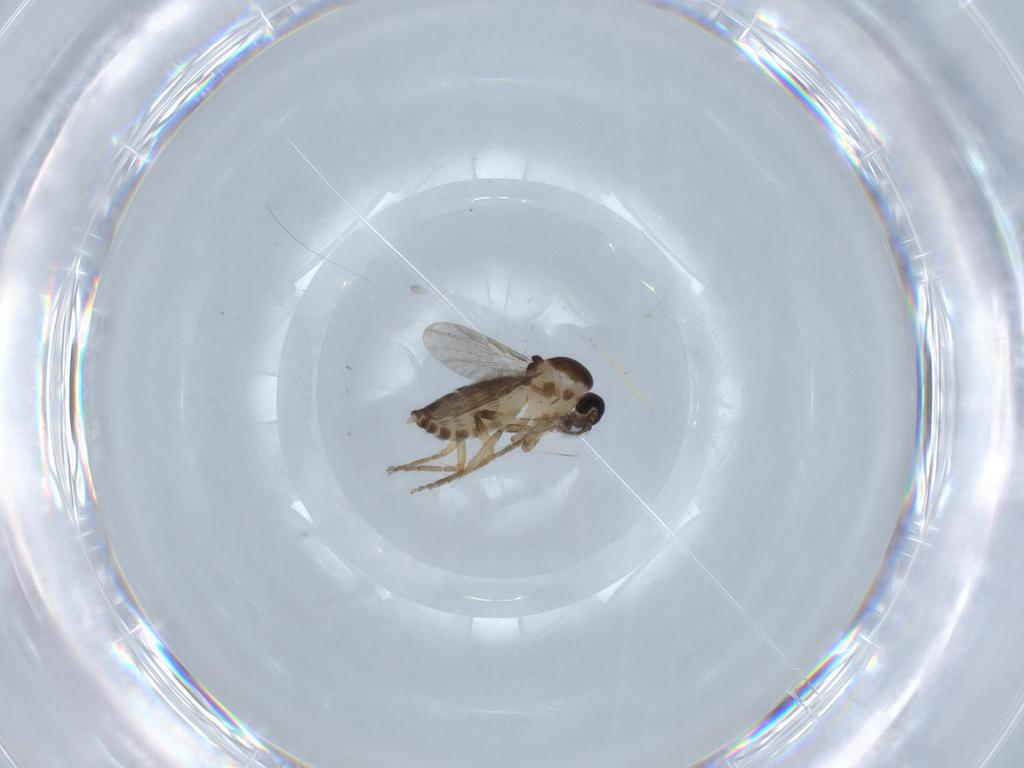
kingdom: Animalia
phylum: Arthropoda
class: Insecta
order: Diptera
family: Ceratopogonidae
